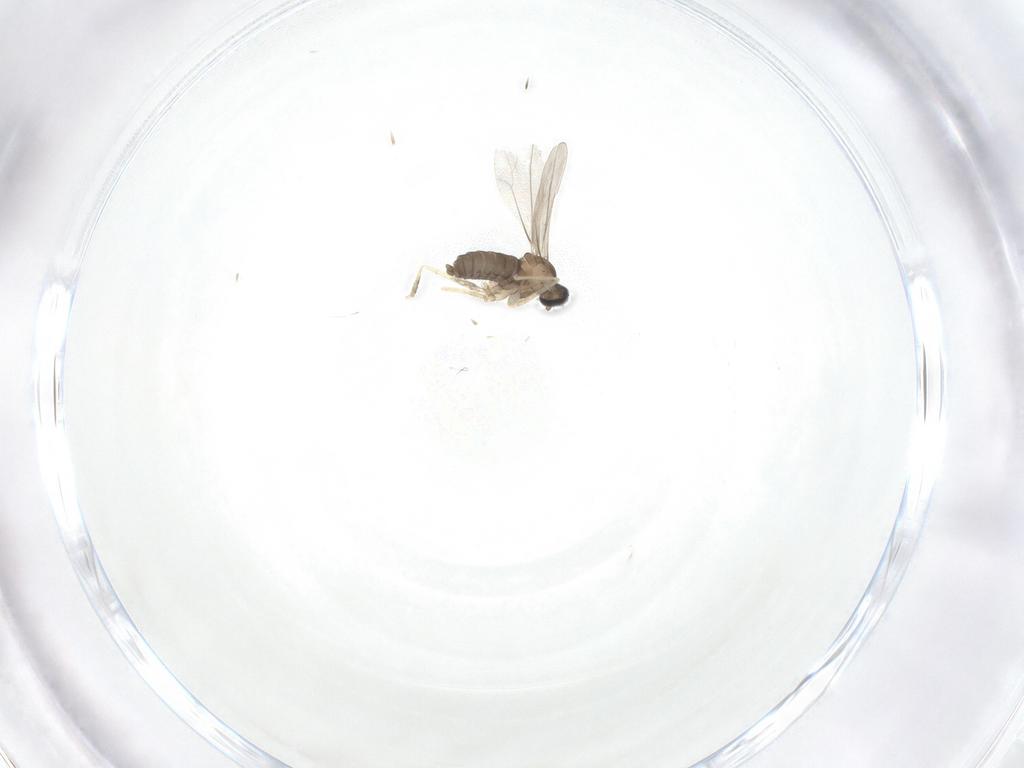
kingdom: Animalia
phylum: Arthropoda
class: Insecta
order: Diptera
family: Cecidomyiidae
